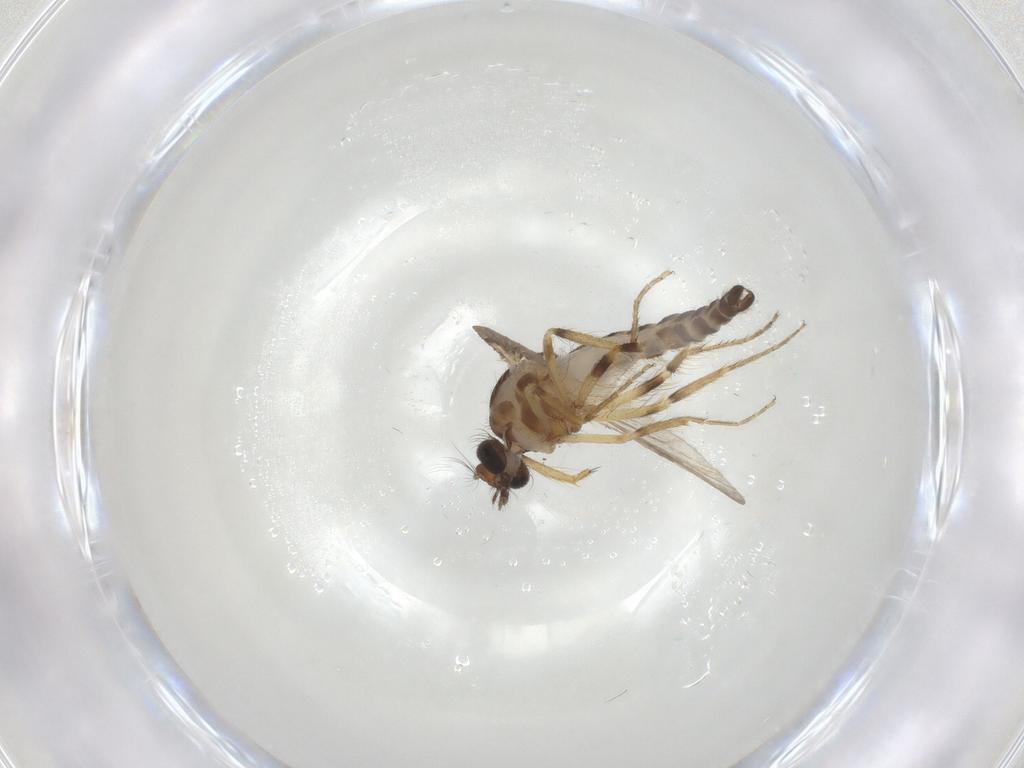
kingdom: Animalia
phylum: Arthropoda
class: Insecta
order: Diptera
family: Ceratopogonidae
